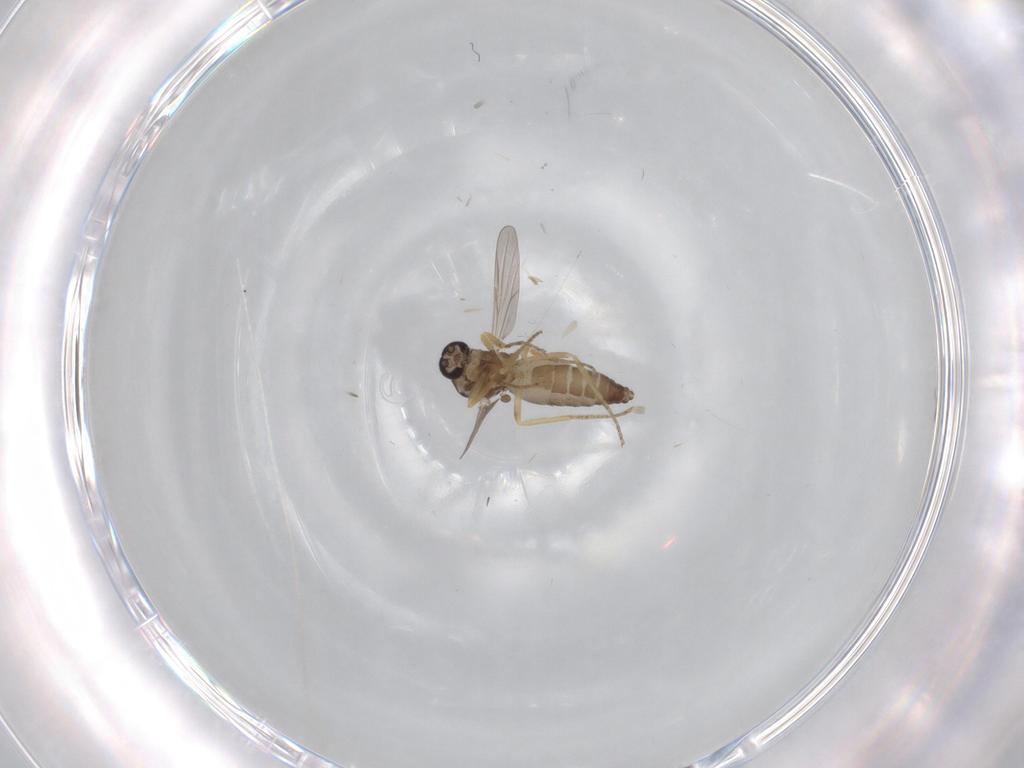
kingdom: Animalia
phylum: Arthropoda
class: Insecta
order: Diptera
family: Ceratopogonidae
